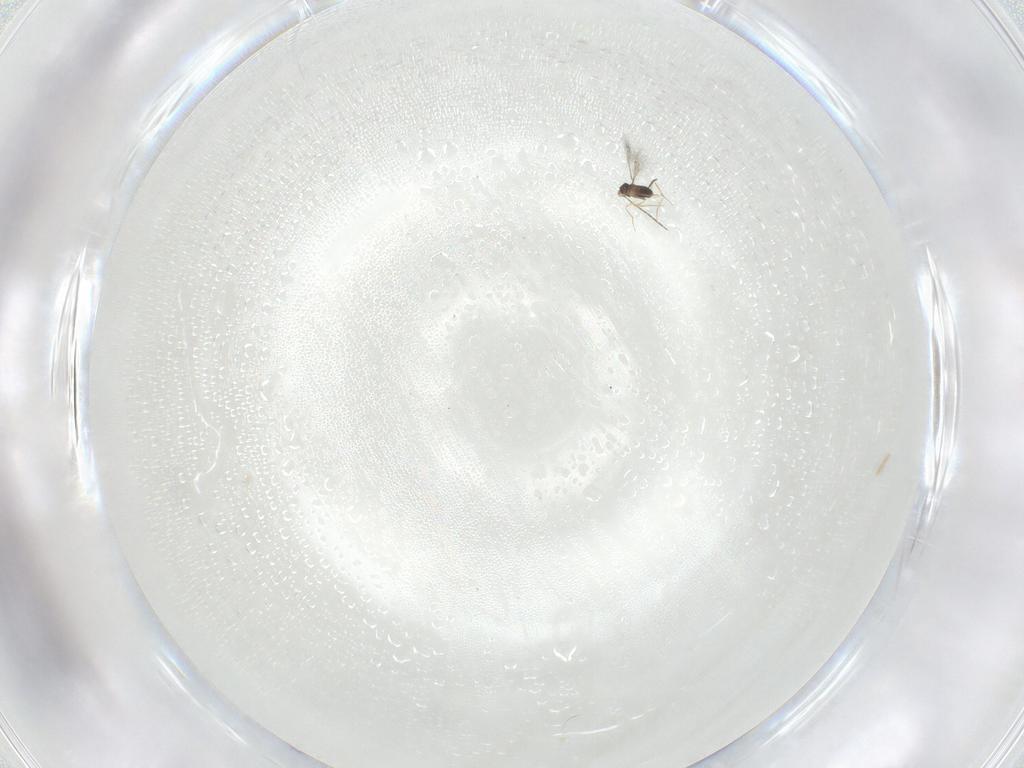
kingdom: Animalia
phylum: Arthropoda
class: Insecta
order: Hymenoptera
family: Mymaridae
